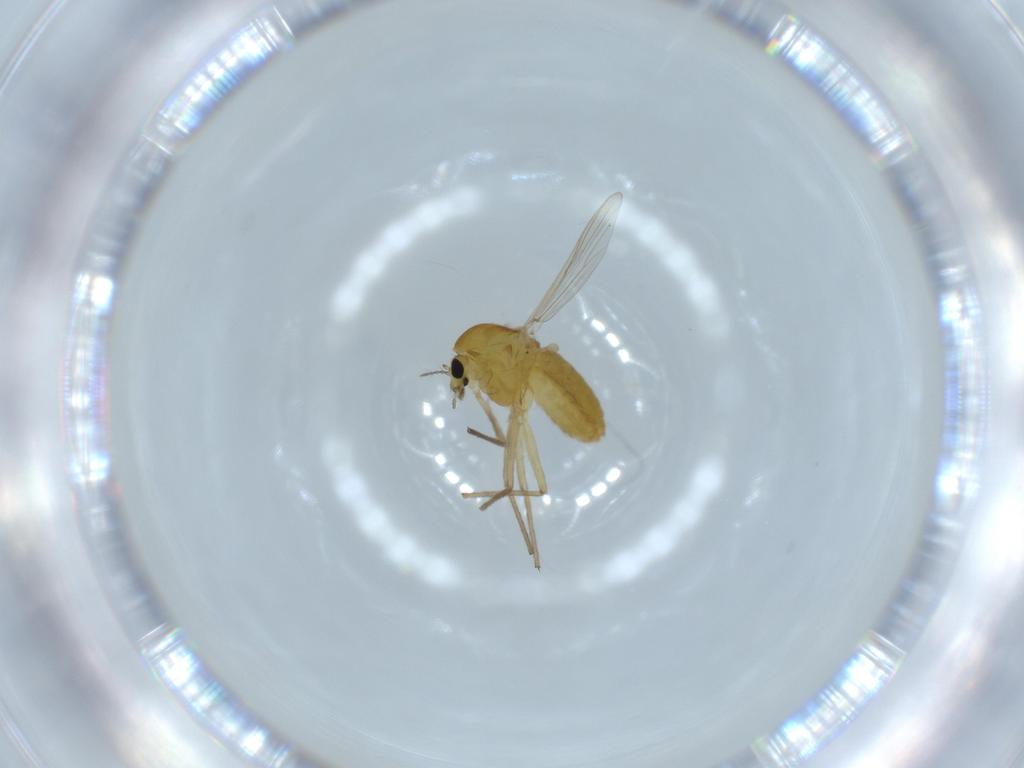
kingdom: Animalia
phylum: Arthropoda
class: Insecta
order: Diptera
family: Chironomidae
